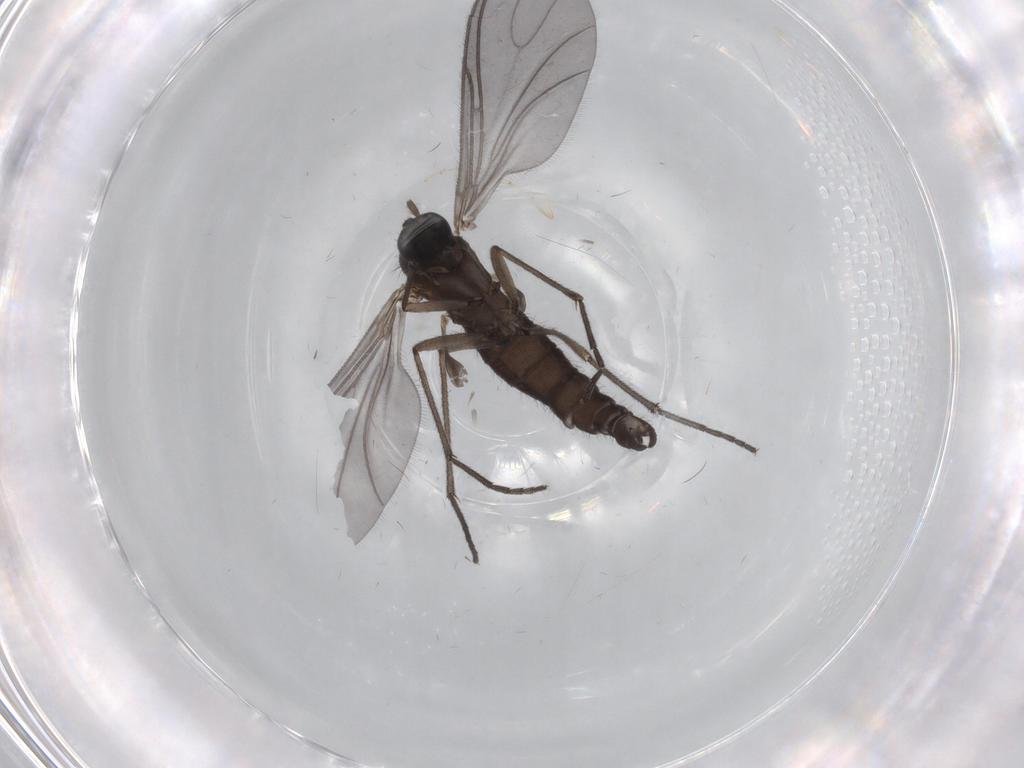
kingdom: Animalia
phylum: Arthropoda
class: Insecta
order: Diptera
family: Sciaridae
